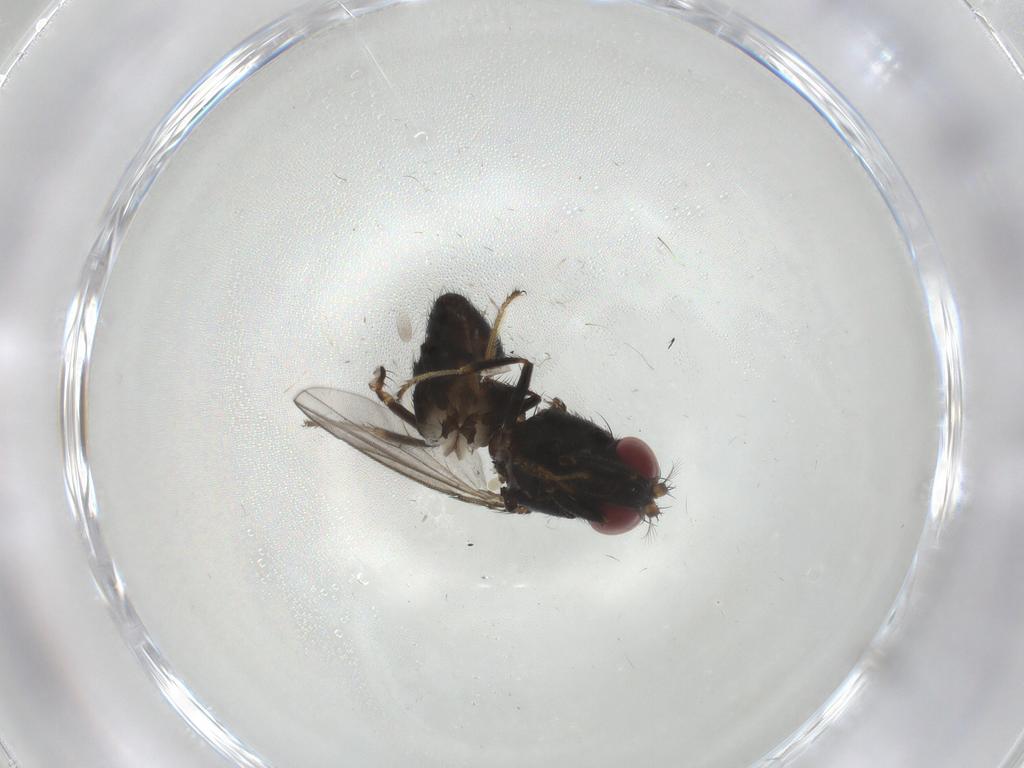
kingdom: Animalia
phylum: Arthropoda
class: Insecta
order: Diptera
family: Ephydridae
